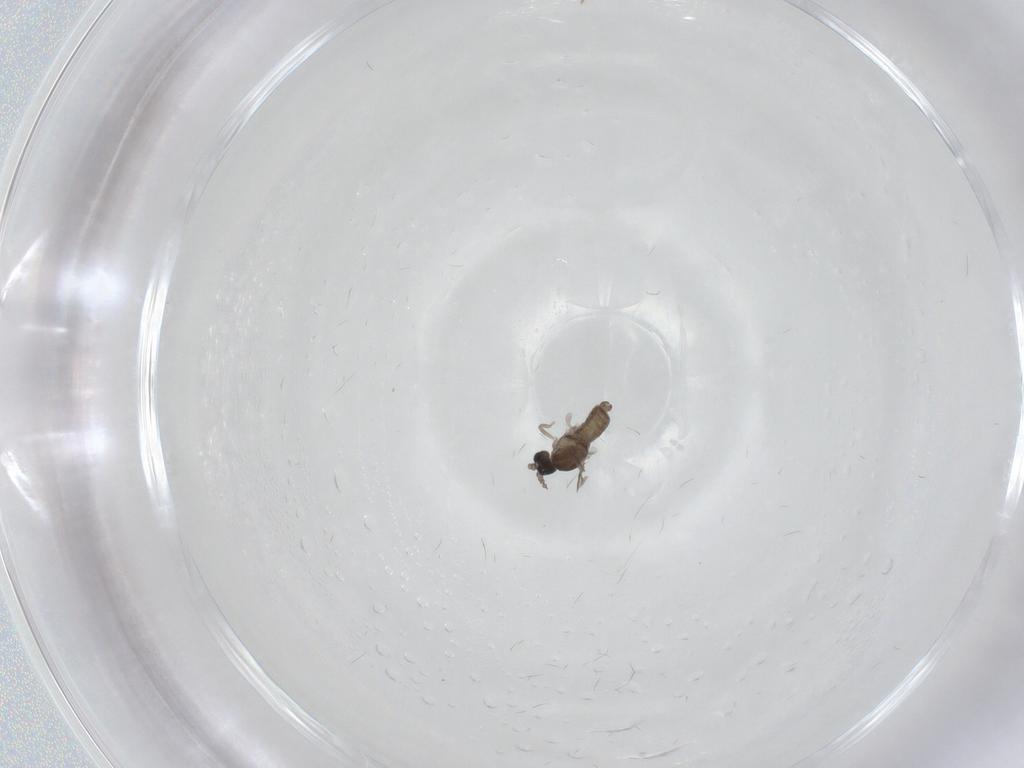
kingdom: Animalia
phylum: Arthropoda
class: Insecta
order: Diptera
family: Cecidomyiidae
